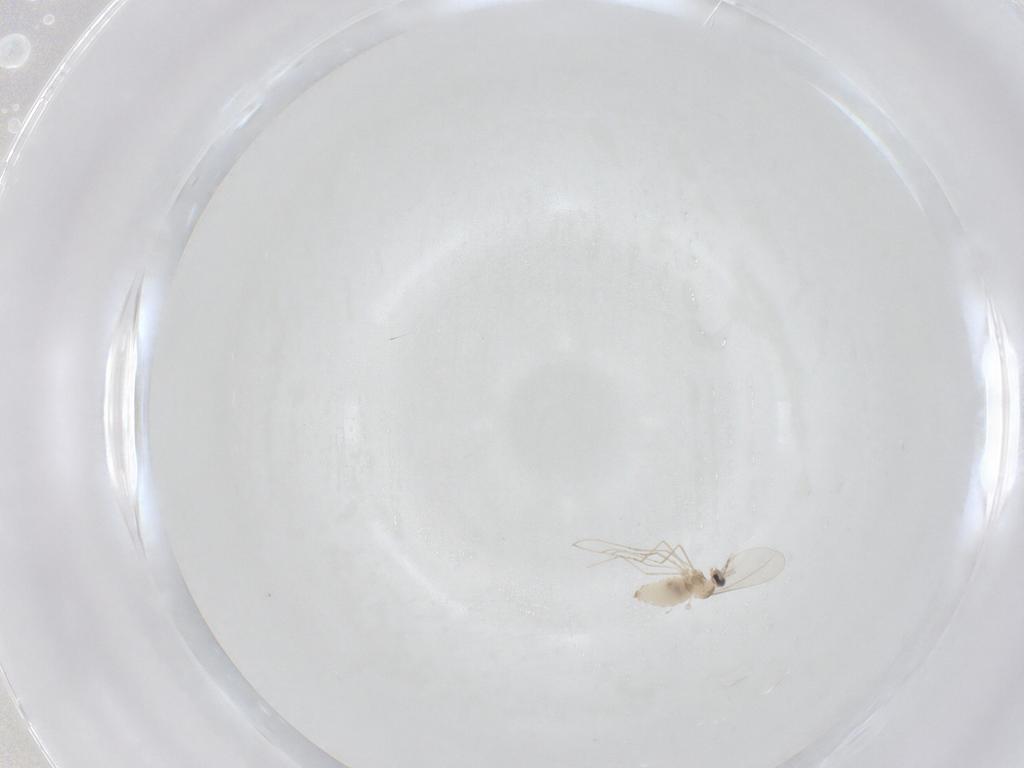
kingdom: Animalia
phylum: Arthropoda
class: Insecta
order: Diptera
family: Cecidomyiidae
